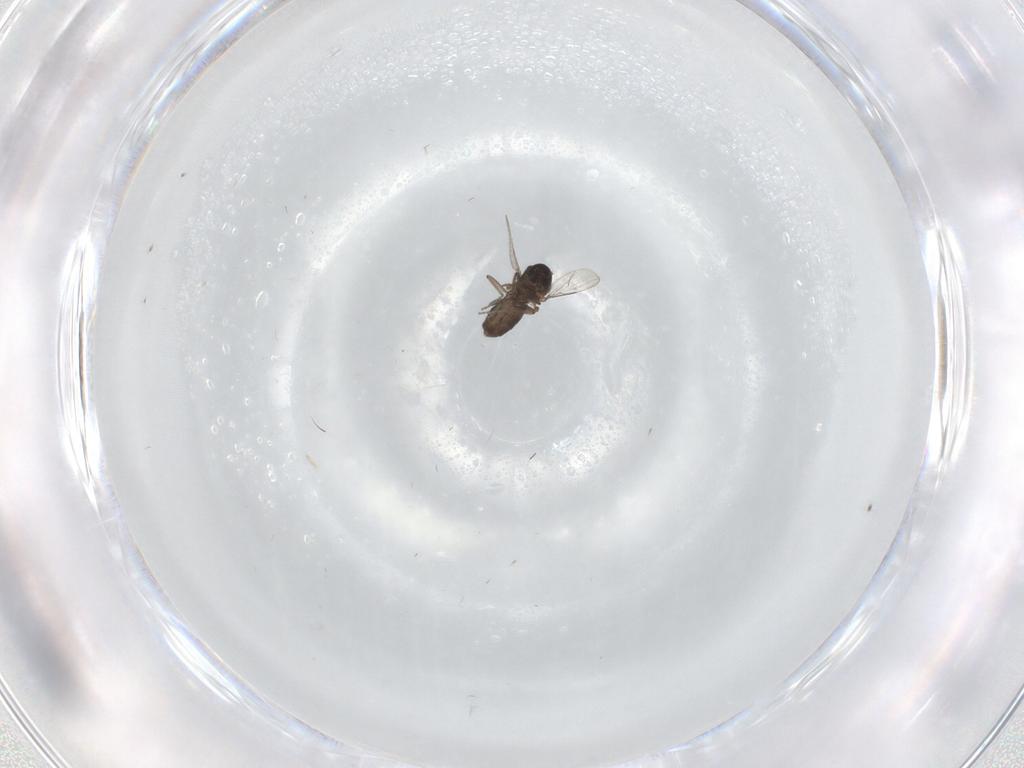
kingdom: Animalia
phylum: Arthropoda
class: Insecta
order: Diptera
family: Ceratopogonidae
